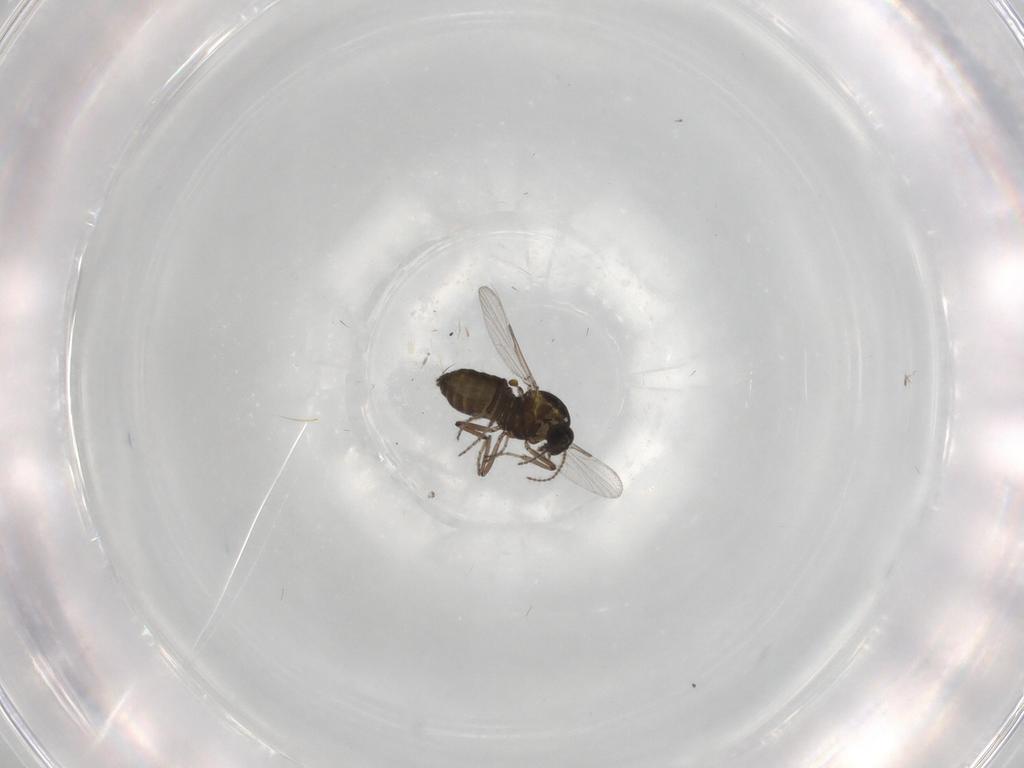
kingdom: Animalia
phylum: Arthropoda
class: Insecta
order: Diptera
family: Ceratopogonidae
